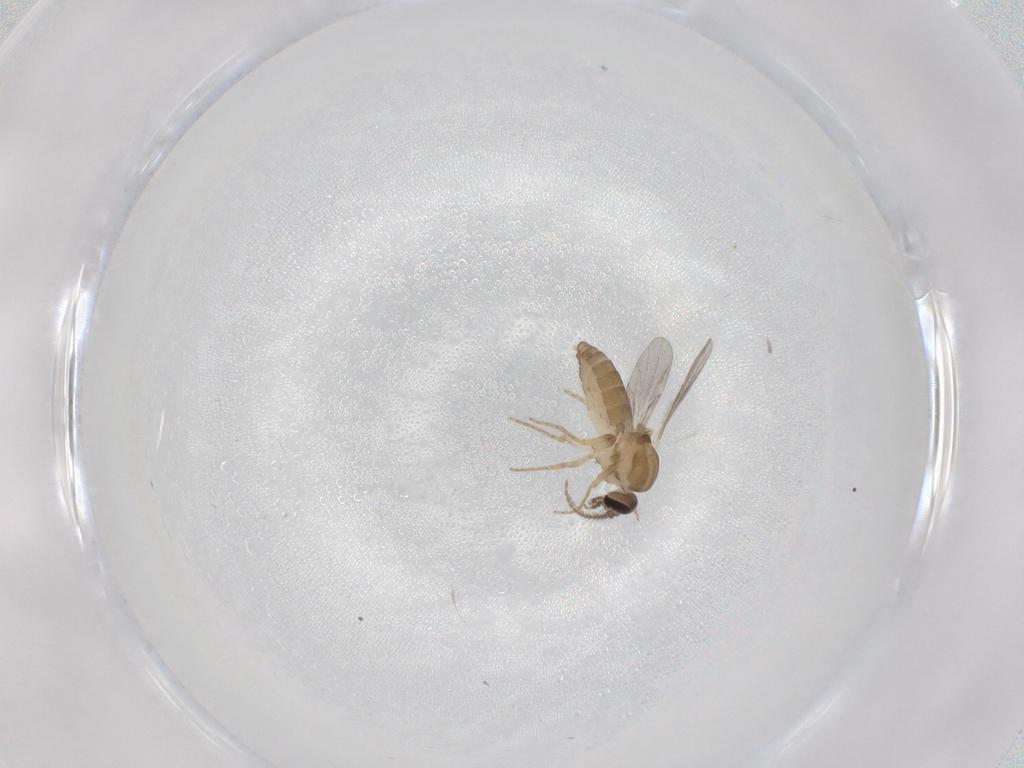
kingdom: Animalia
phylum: Arthropoda
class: Insecta
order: Diptera
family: Ceratopogonidae
